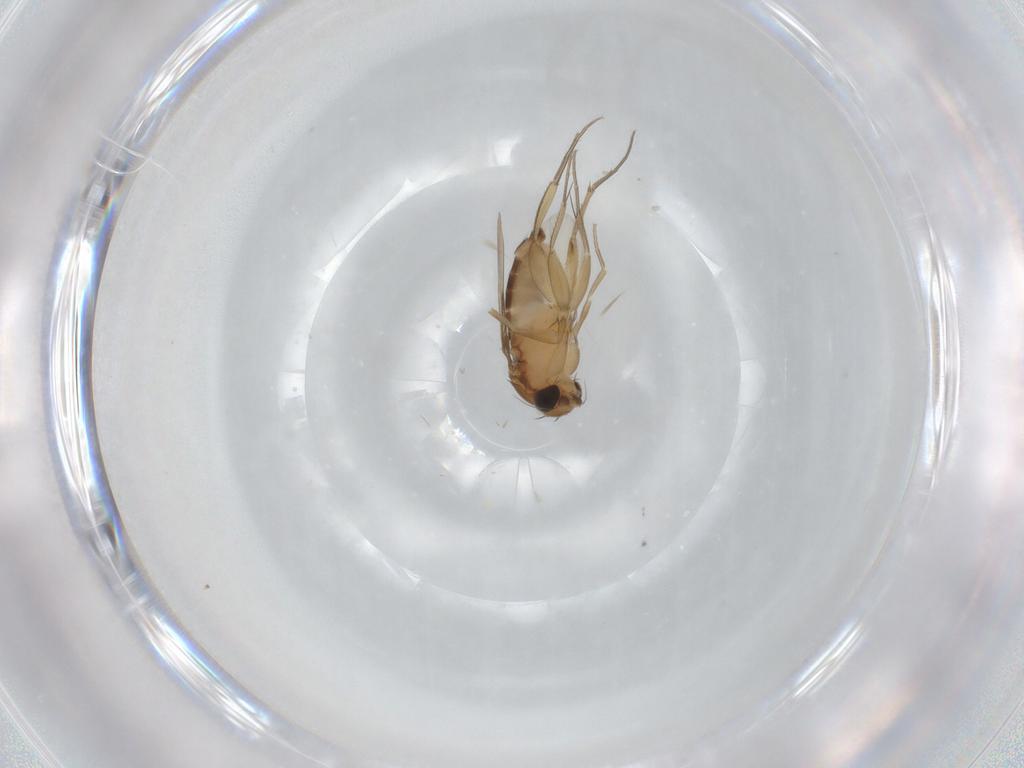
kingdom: Animalia
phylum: Arthropoda
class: Insecta
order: Diptera
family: Phoridae
